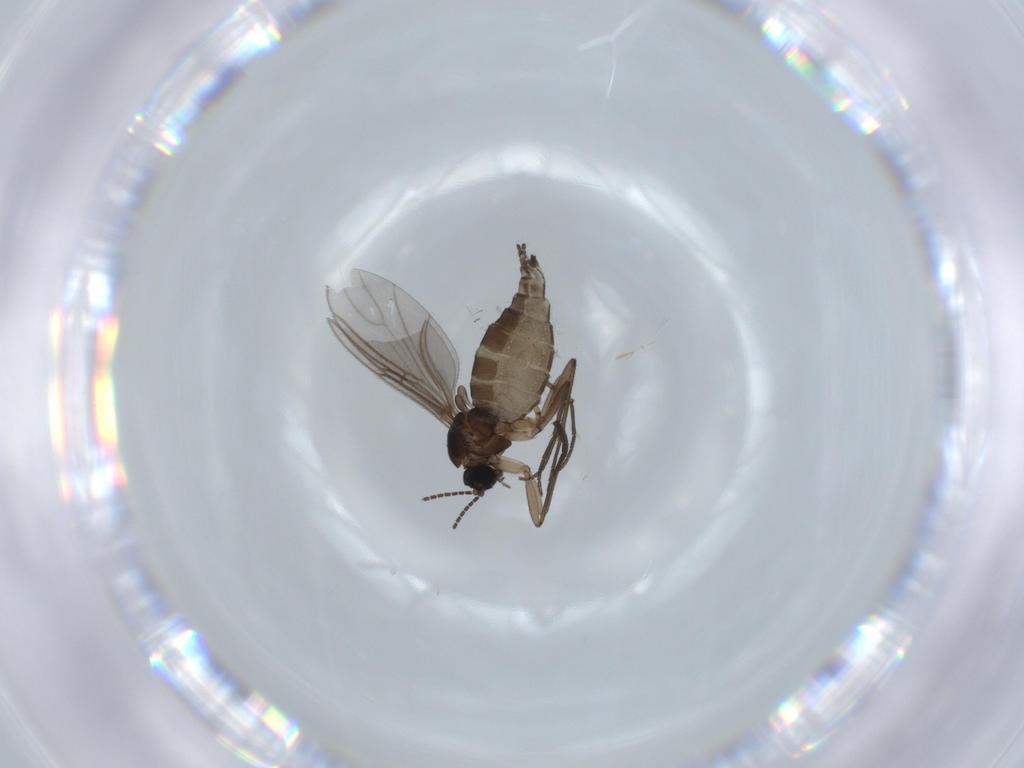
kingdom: Animalia
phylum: Arthropoda
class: Insecta
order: Diptera
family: Sciaridae
